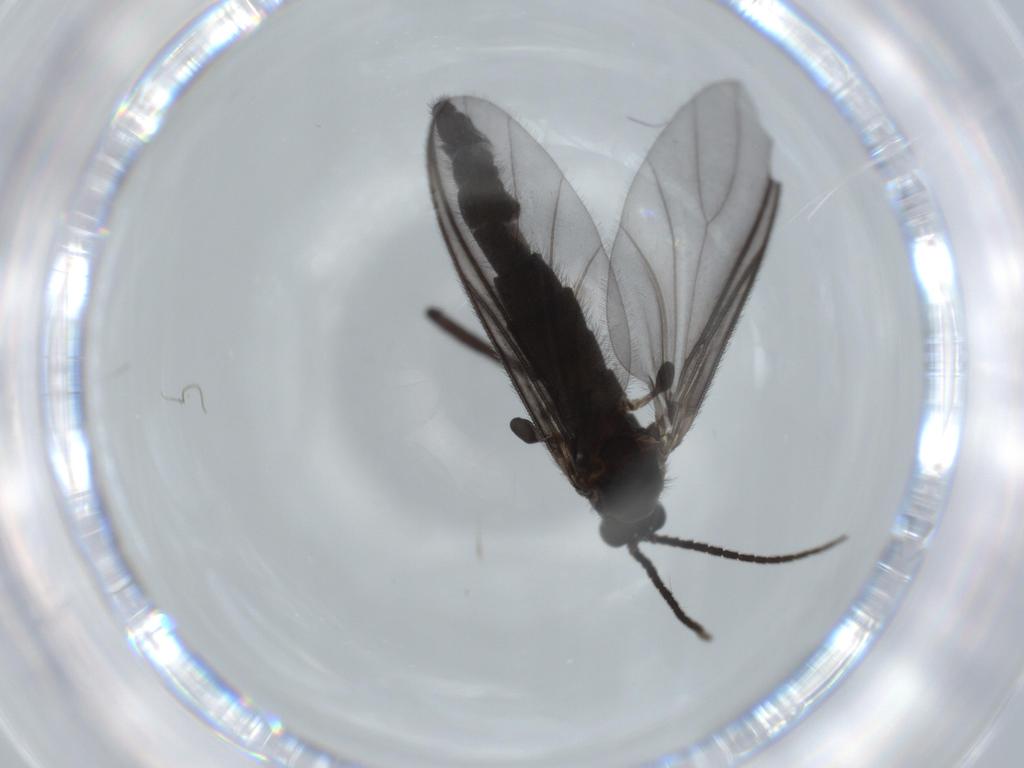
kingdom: Animalia
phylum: Arthropoda
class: Insecta
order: Diptera
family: Sciaridae
